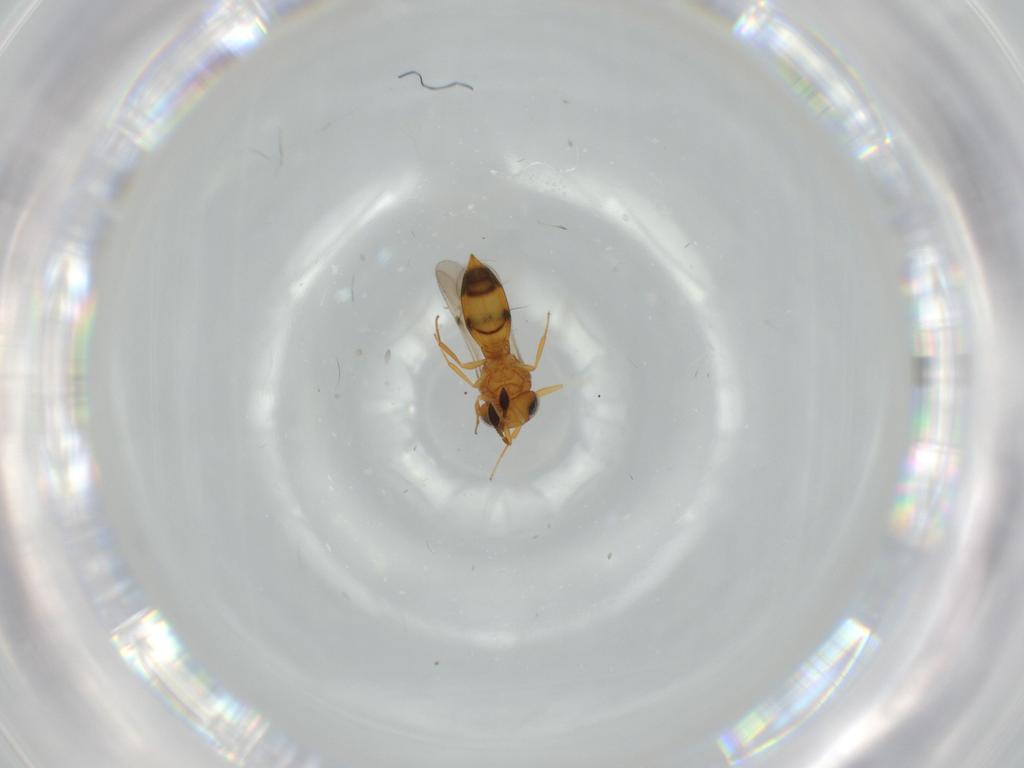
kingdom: Animalia
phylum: Arthropoda
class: Insecta
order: Hymenoptera
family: Scelionidae
